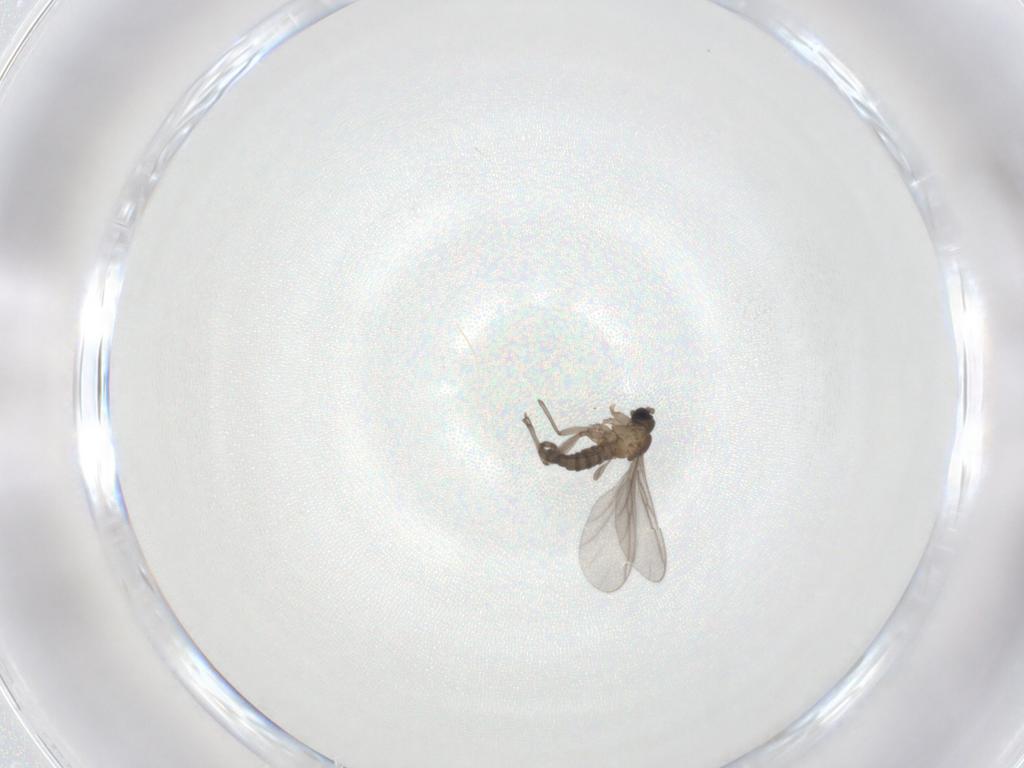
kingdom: Animalia
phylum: Arthropoda
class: Insecta
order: Diptera
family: Sciaridae
